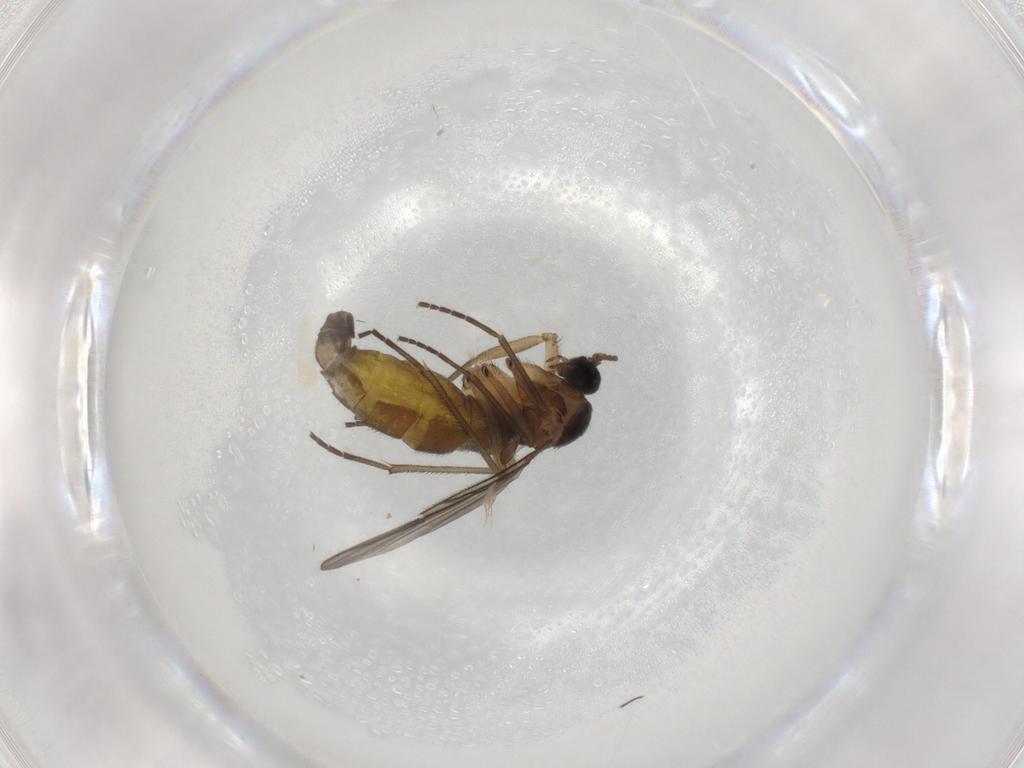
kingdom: Animalia
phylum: Arthropoda
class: Insecta
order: Diptera
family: Sciaridae
